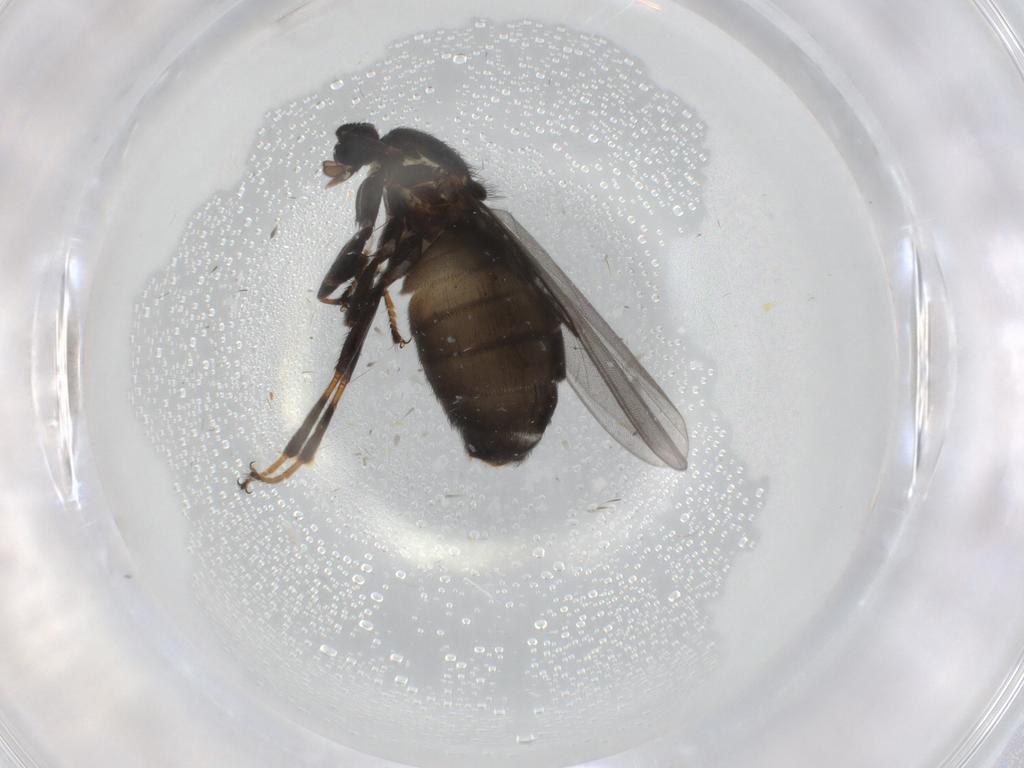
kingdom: Animalia
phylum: Arthropoda
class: Insecta
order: Diptera
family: Scatopsidae
